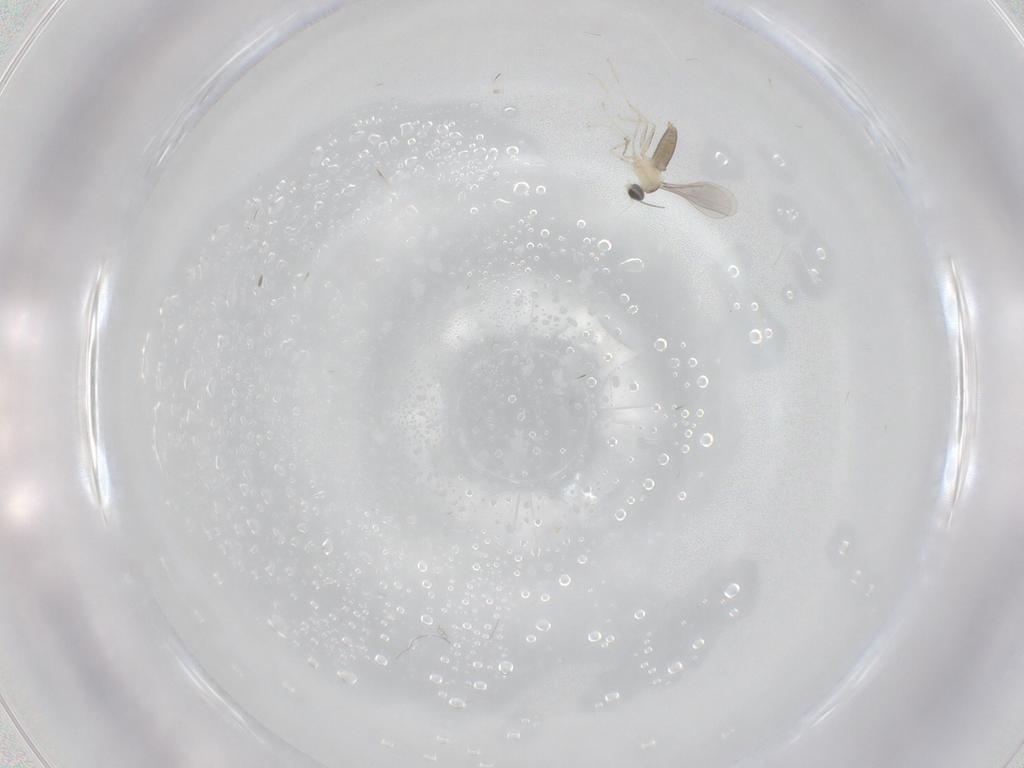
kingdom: Animalia
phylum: Arthropoda
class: Insecta
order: Diptera
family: Cecidomyiidae
